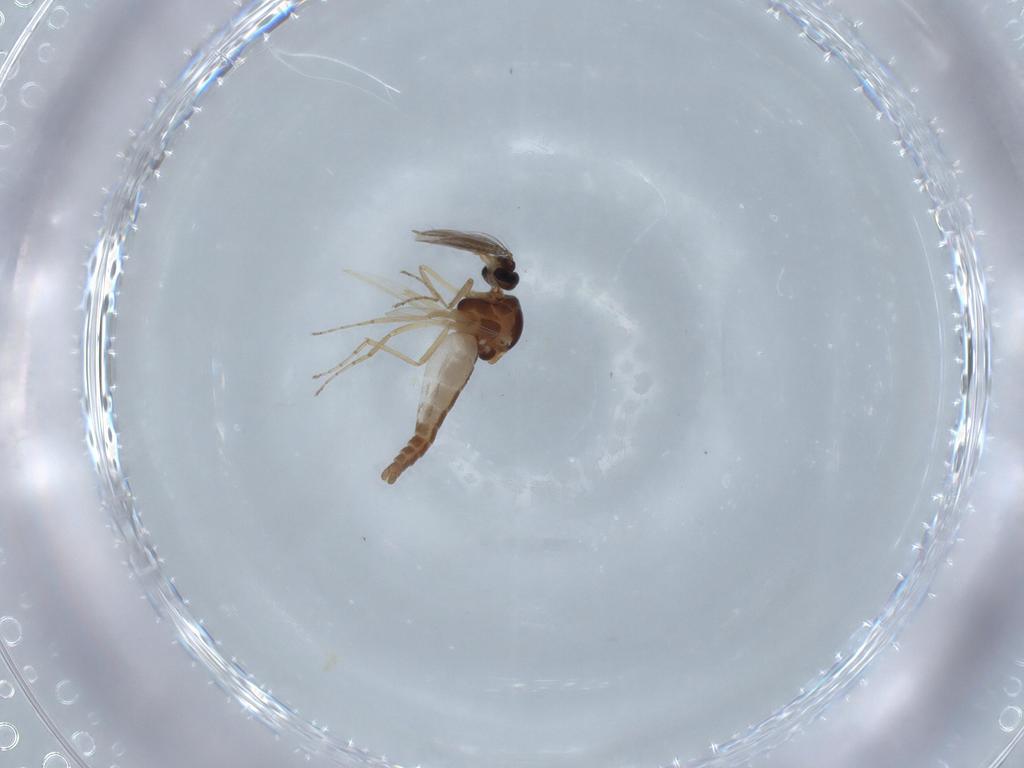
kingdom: Animalia
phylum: Arthropoda
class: Insecta
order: Diptera
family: Ceratopogonidae
